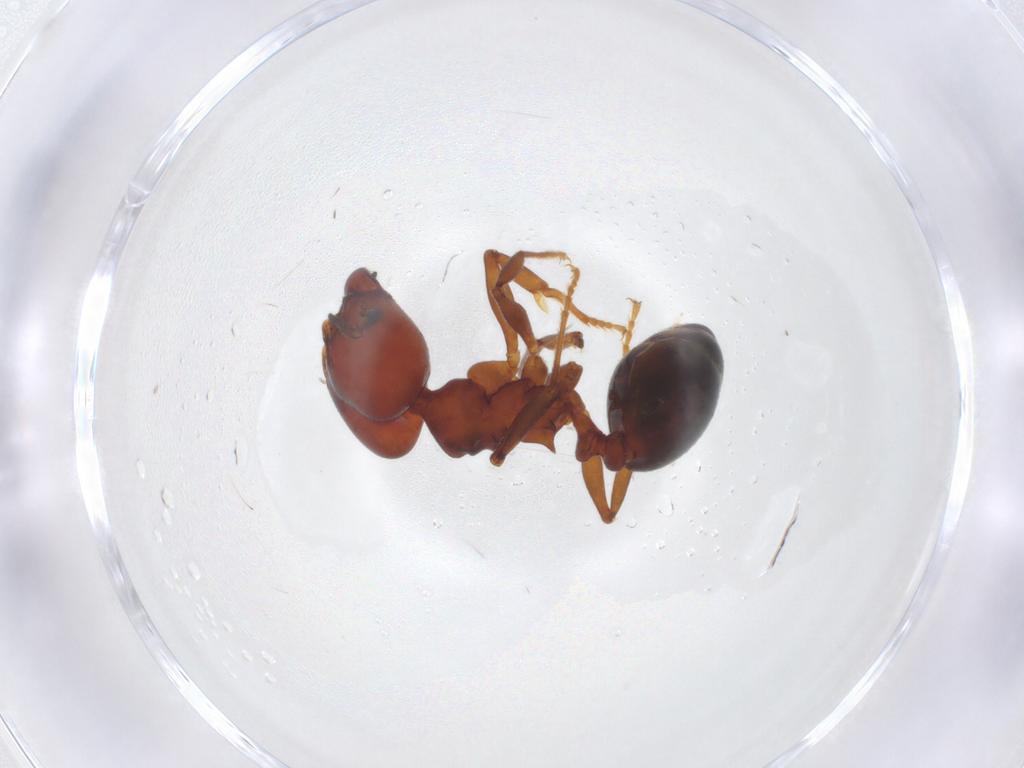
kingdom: Animalia
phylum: Arthropoda
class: Insecta
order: Hymenoptera
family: Formicidae
